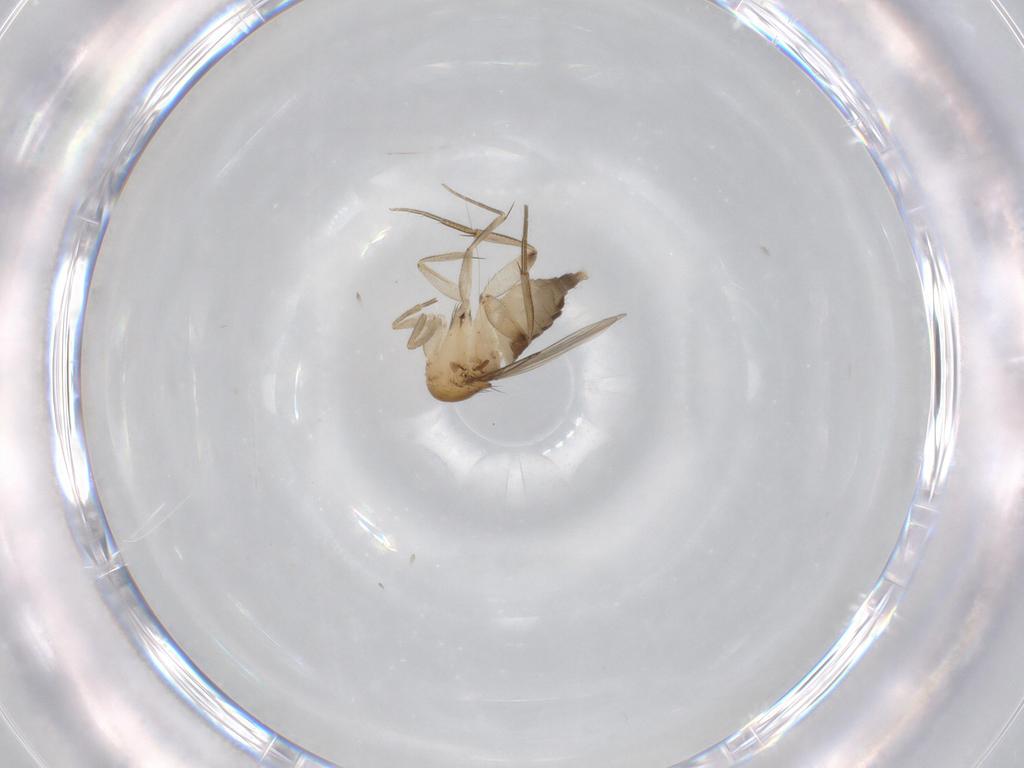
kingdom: Animalia
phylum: Arthropoda
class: Insecta
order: Diptera
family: Phoridae
